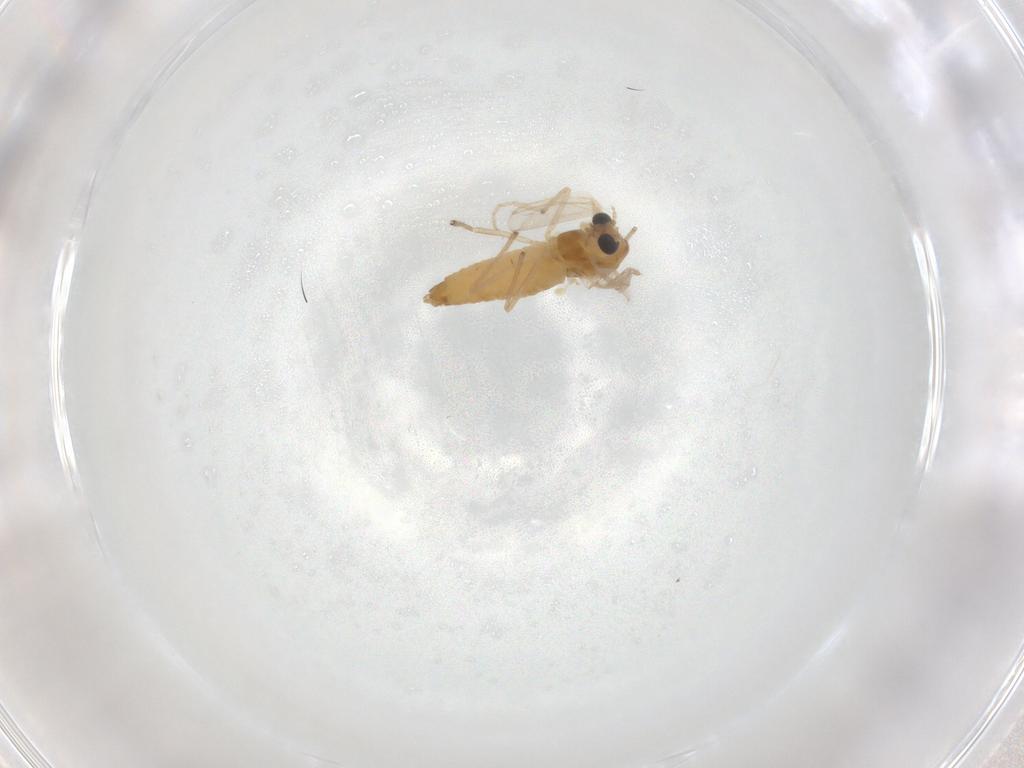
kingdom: Animalia
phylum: Arthropoda
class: Insecta
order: Diptera
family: Chironomidae
